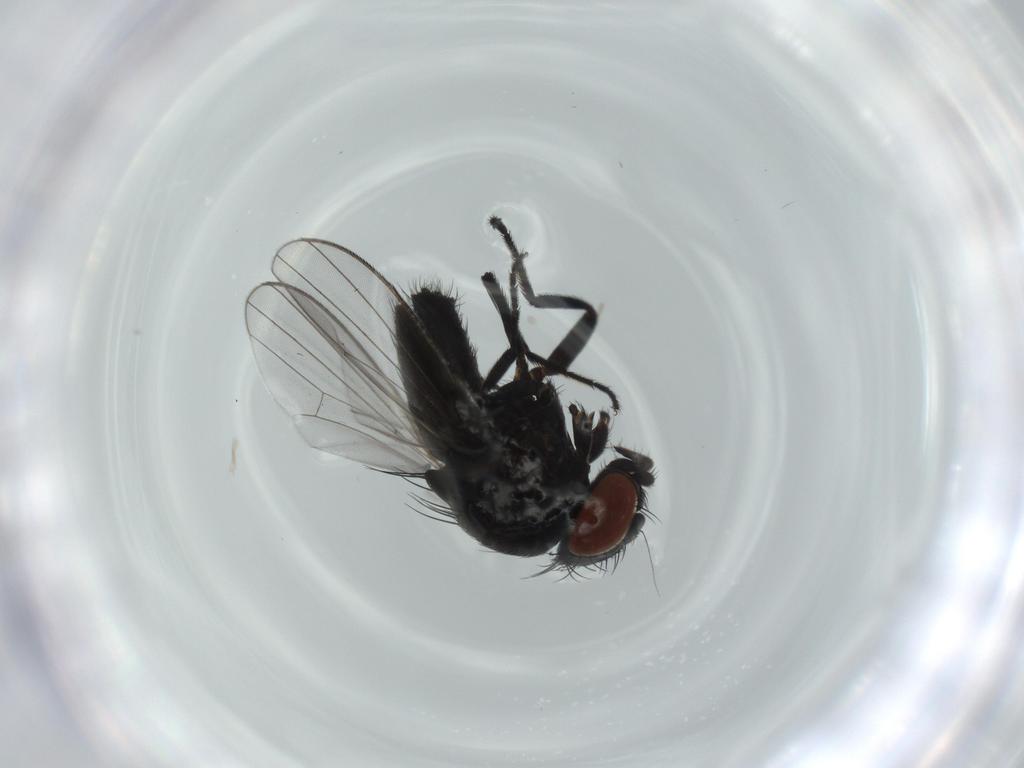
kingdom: Animalia
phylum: Arthropoda
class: Insecta
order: Diptera
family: Milichiidae
